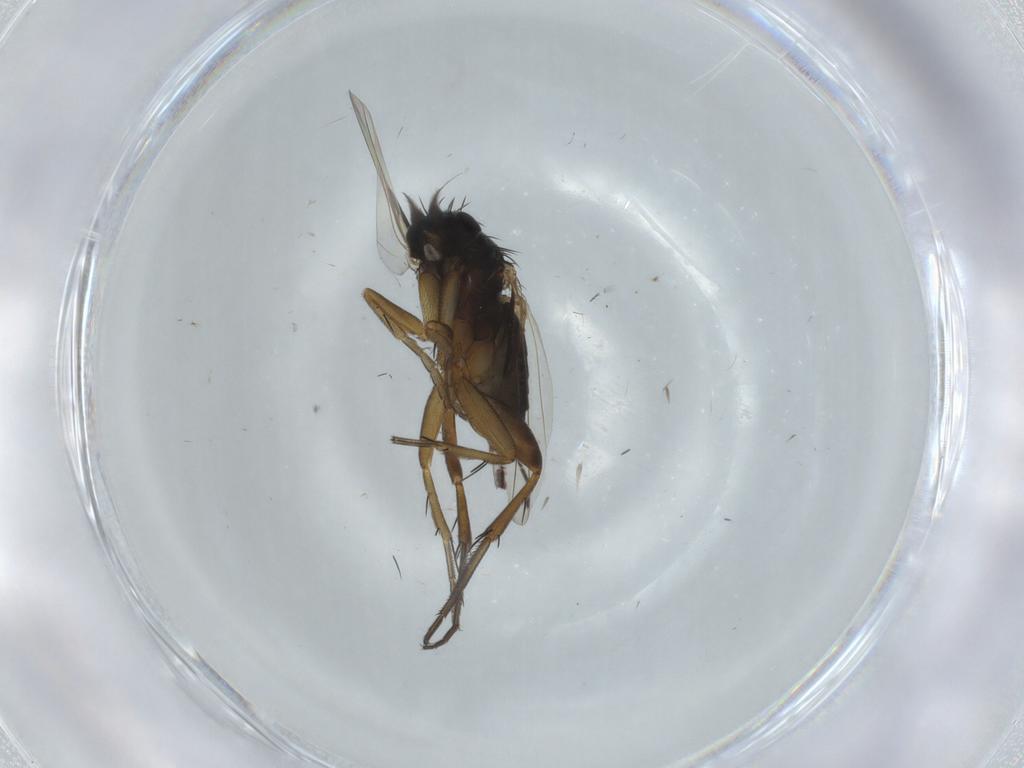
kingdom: Animalia
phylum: Arthropoda
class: Insecta
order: Diptera
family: Phoridae
